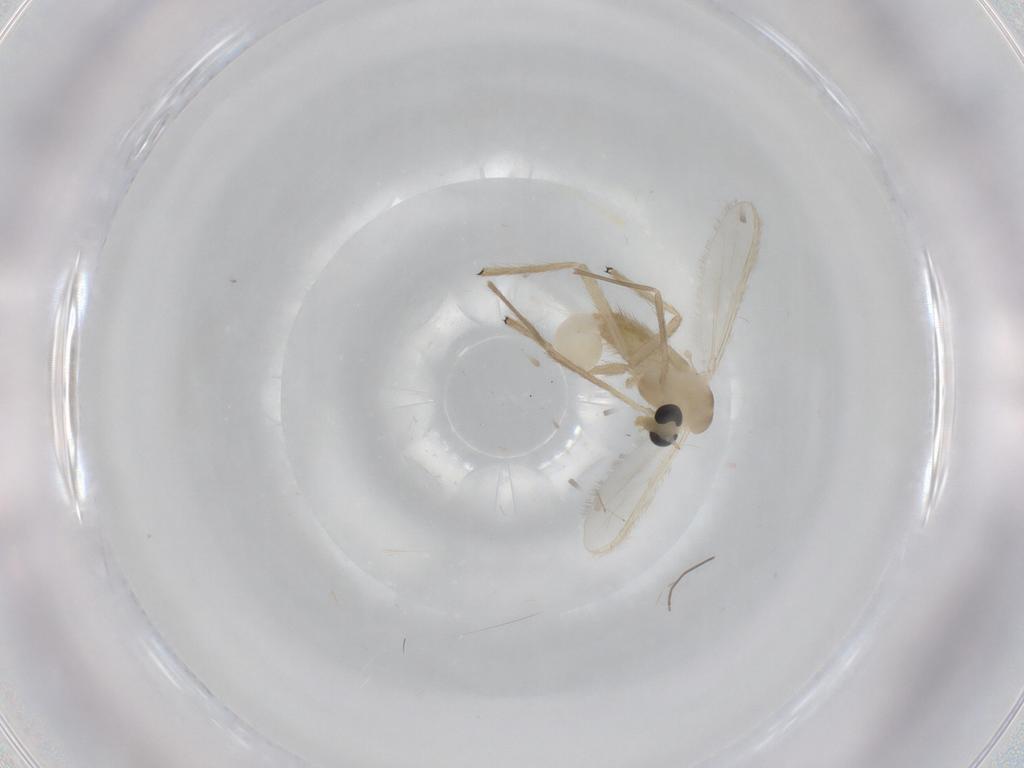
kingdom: Animalia
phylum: Arthropoda
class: Insecta
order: Diptera
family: Chironomidae
